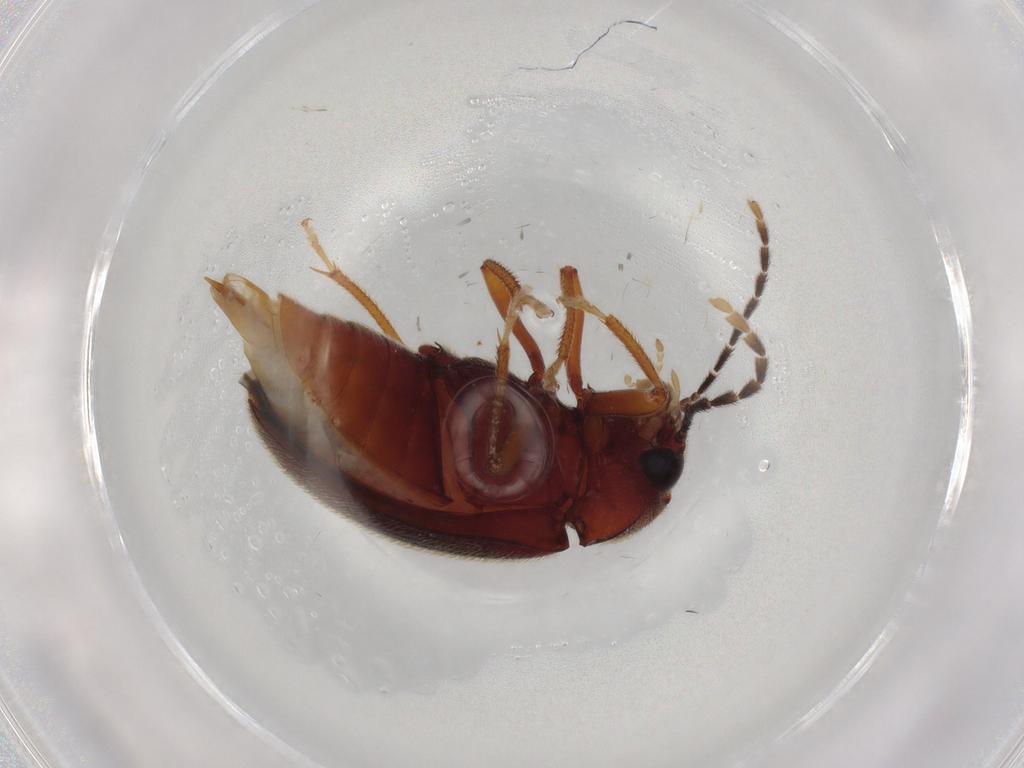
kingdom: Animalia
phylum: Arthropoda
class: Insecta
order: Coleoptera
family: Ptilodactylidae
